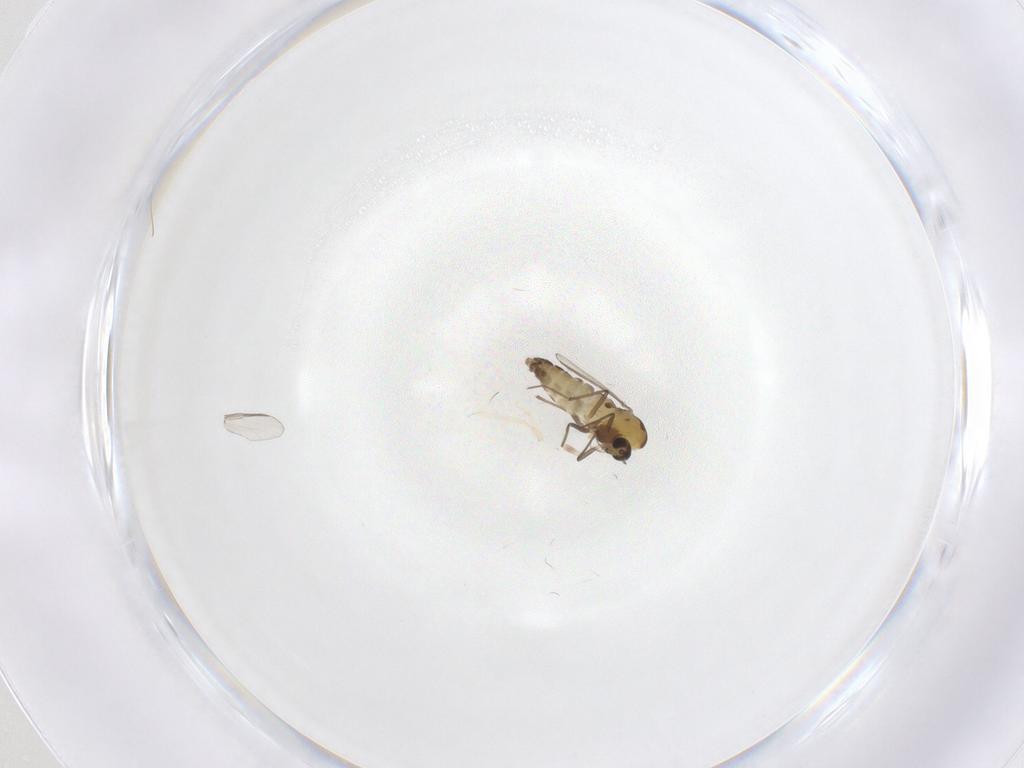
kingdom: Animalia
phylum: Arthropoda
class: Insecta
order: Diptera
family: Chironomidae
